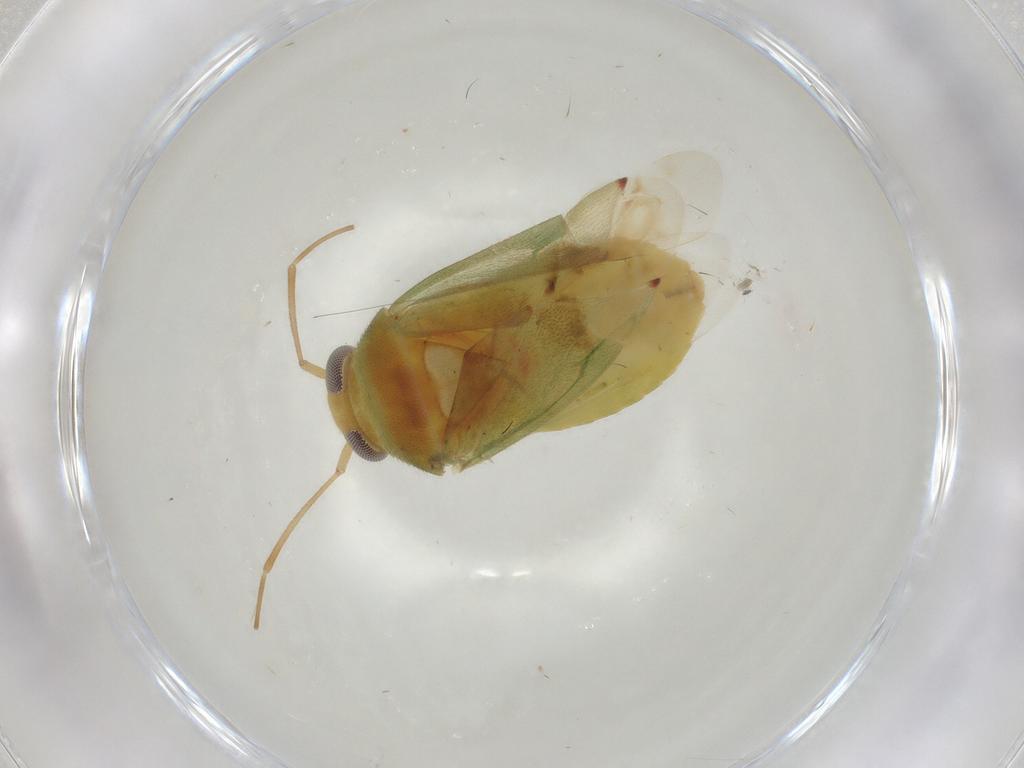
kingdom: Animalia
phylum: Arthropoda
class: Insecta
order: Hemiptera
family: Miridae
